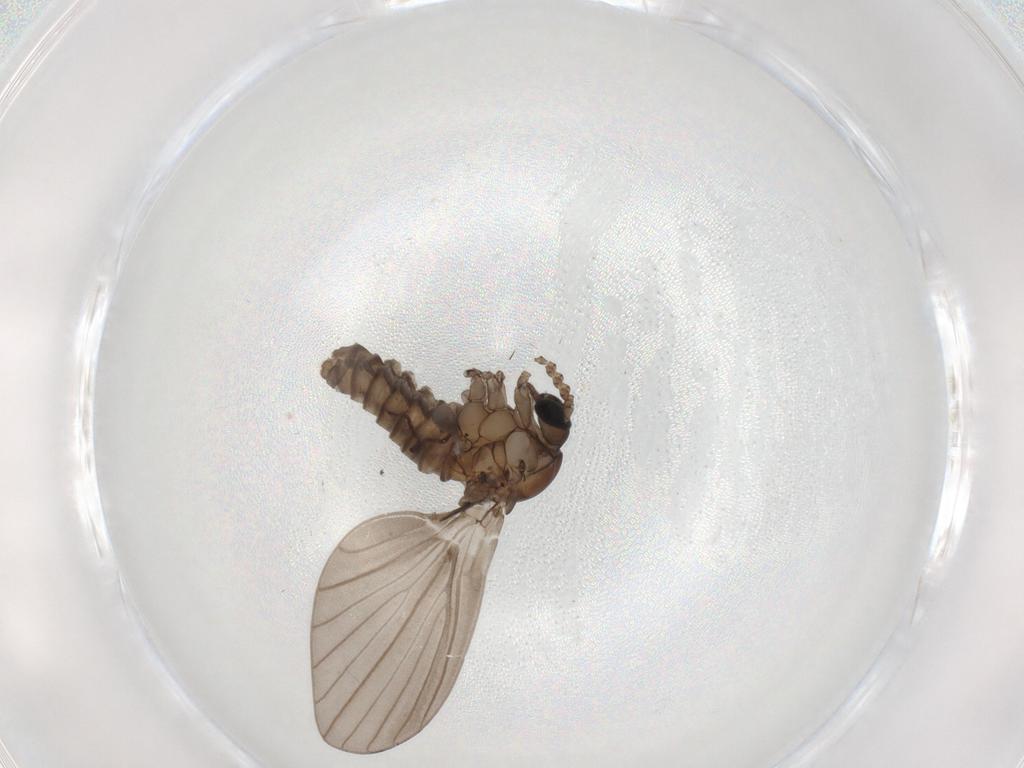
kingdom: Animalia
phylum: Arthropoda
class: Insecta
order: Diptera
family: Psychodidae
